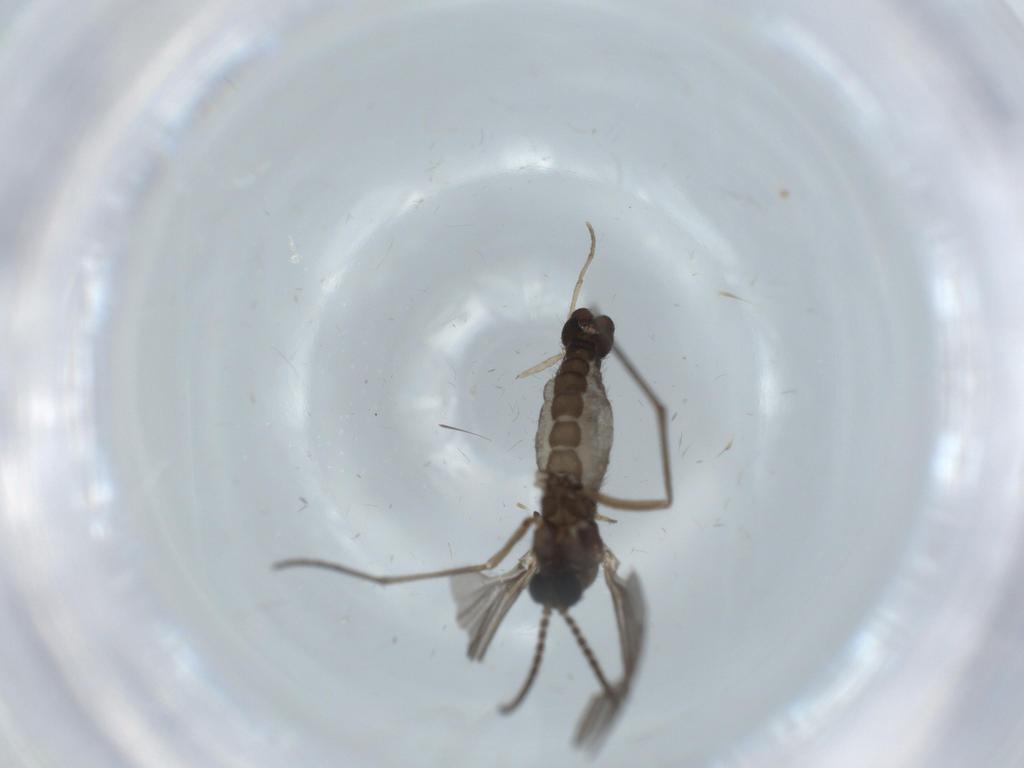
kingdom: Animalia
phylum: Arthropoda
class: Insecta
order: Diptera
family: Sciaridae
